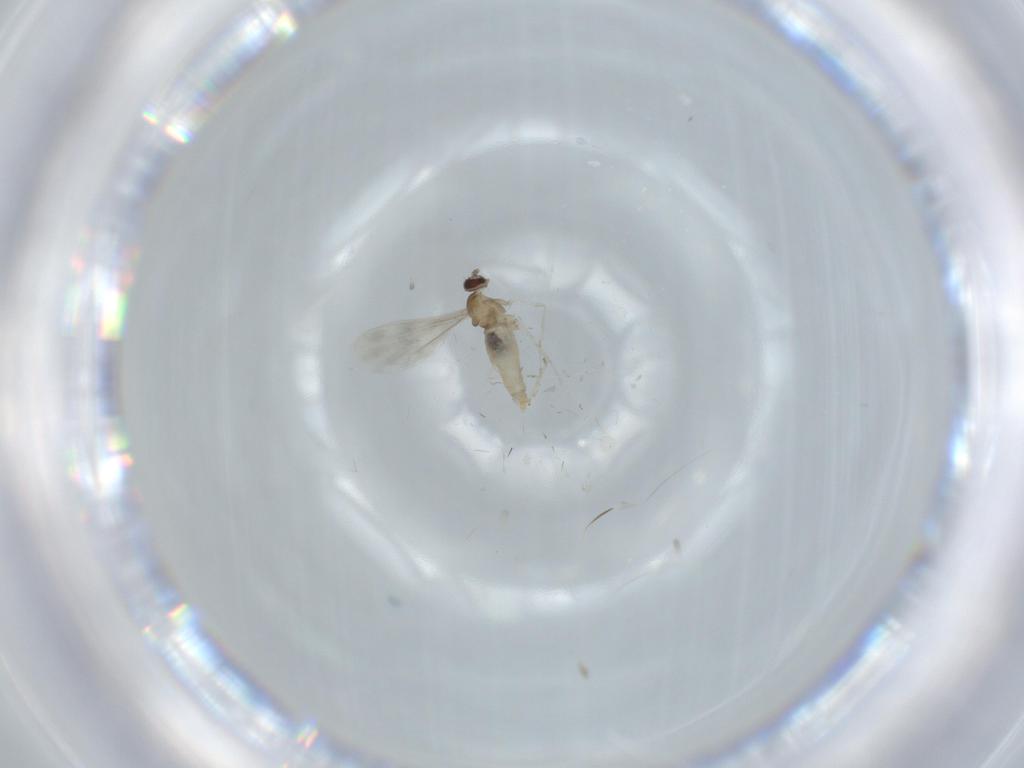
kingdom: Animalia
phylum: Arthropoda
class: Insecta
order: Diptera
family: Cecidomyiidae
